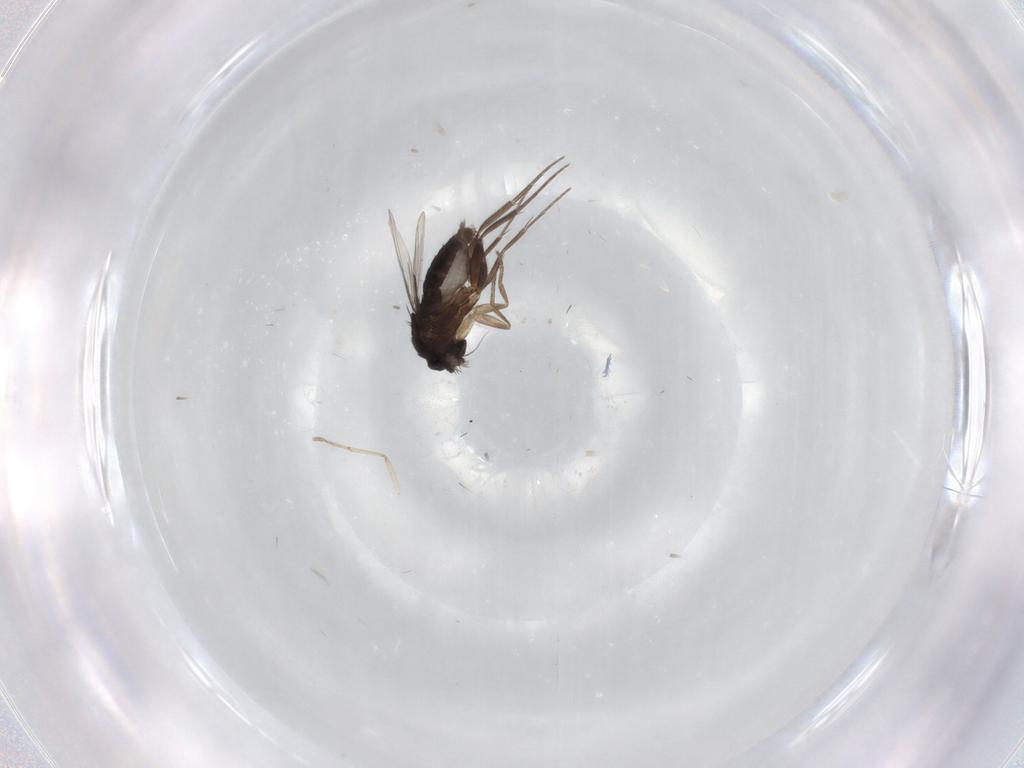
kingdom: Animalia
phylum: Arthropoda
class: Insecta
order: Diptera
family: Phoridae
